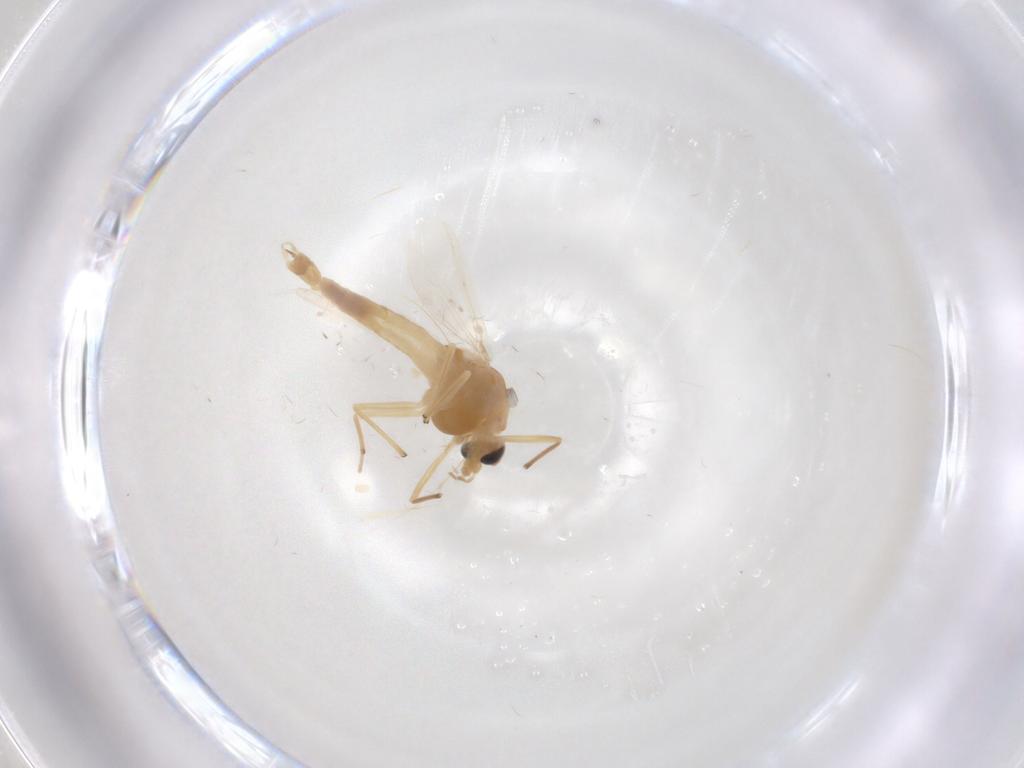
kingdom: Animalia
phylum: Arthropoda
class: Insecta
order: Diptera
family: Chironomidae
